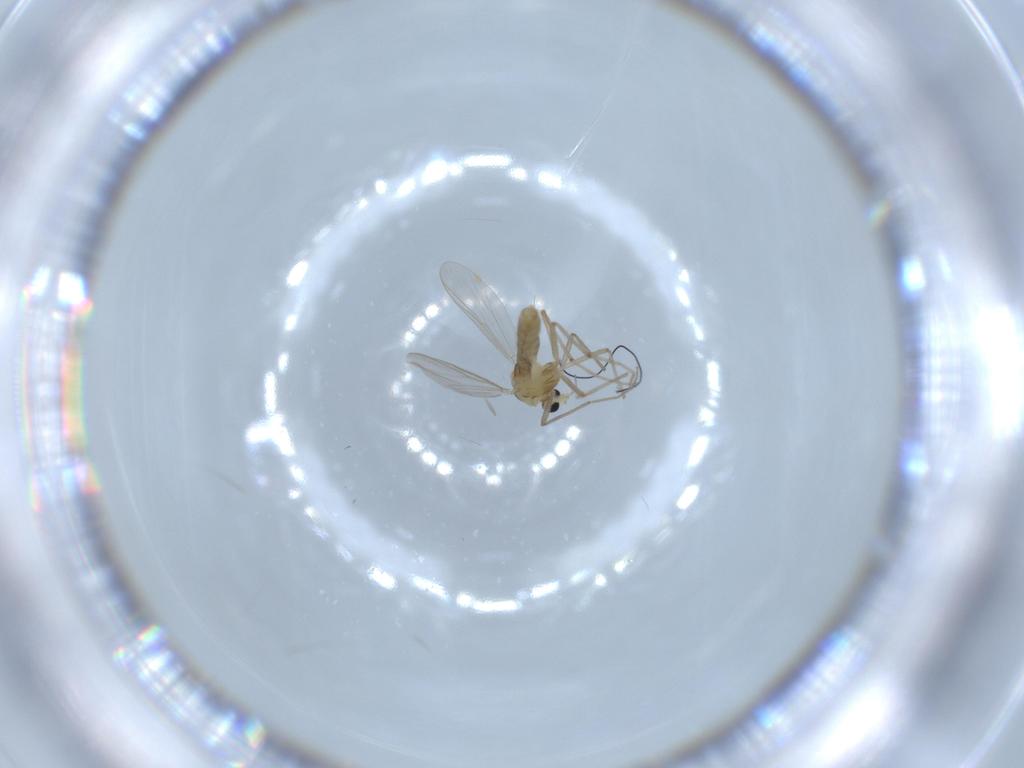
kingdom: Animalia
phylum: Arthropoda
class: Insecta
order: Diptera
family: Chironomidae
